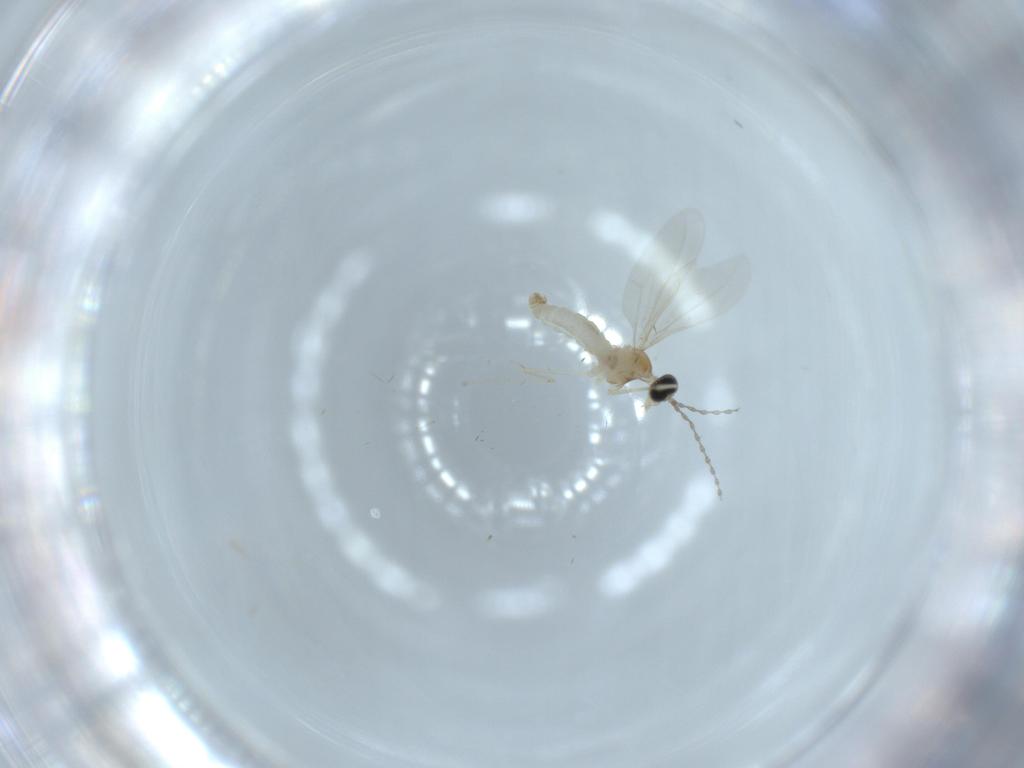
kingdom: Animalia
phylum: Arthropoda
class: Insecta
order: Diptera
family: Cecidomyiidae
